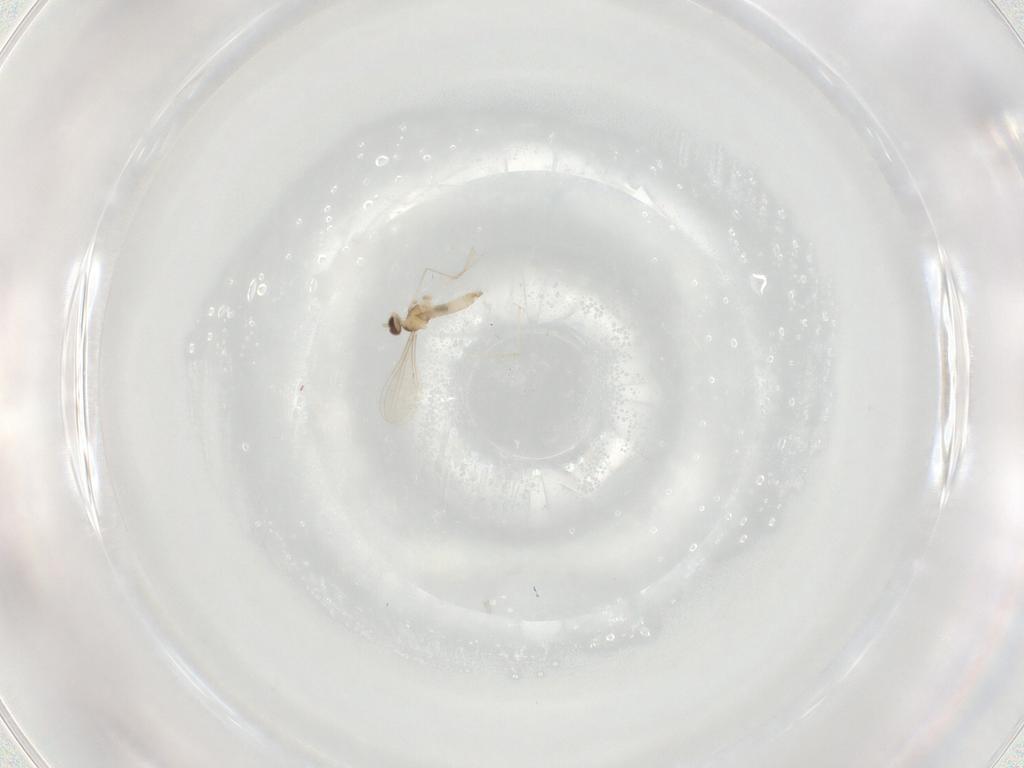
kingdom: Animalia
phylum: Arthropoda
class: Insecta
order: Diptera
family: Cecidomyiidae
